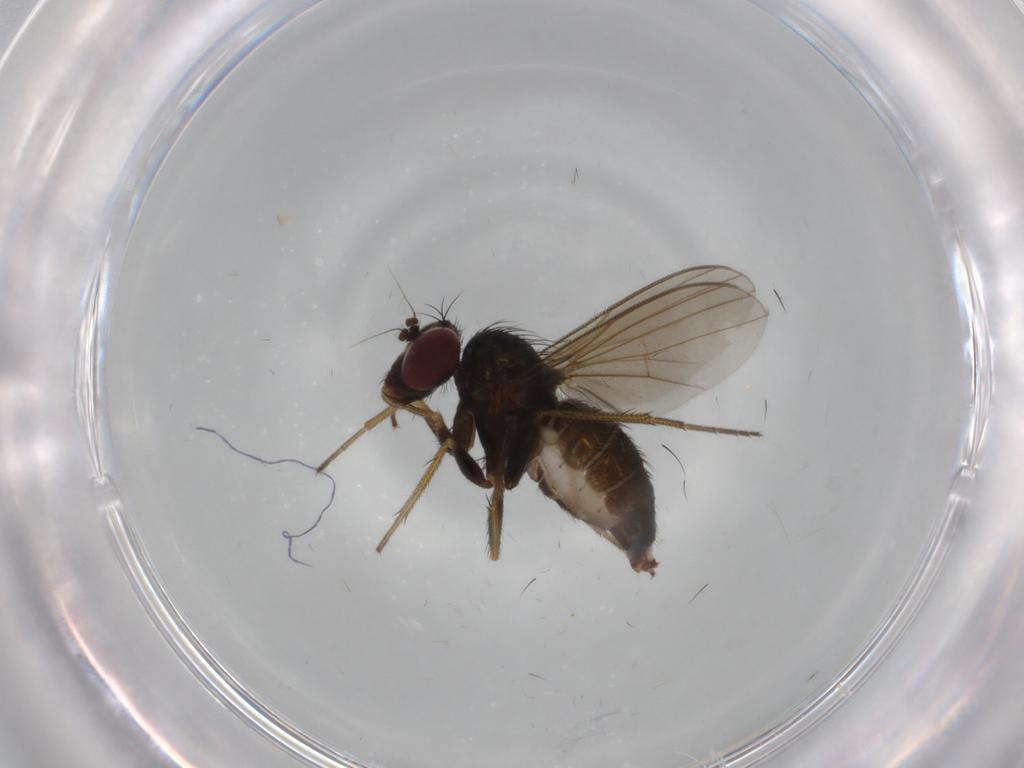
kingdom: Animalia
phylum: Arthropoda
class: Insecta
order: Diptera
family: Dolichopodidae
